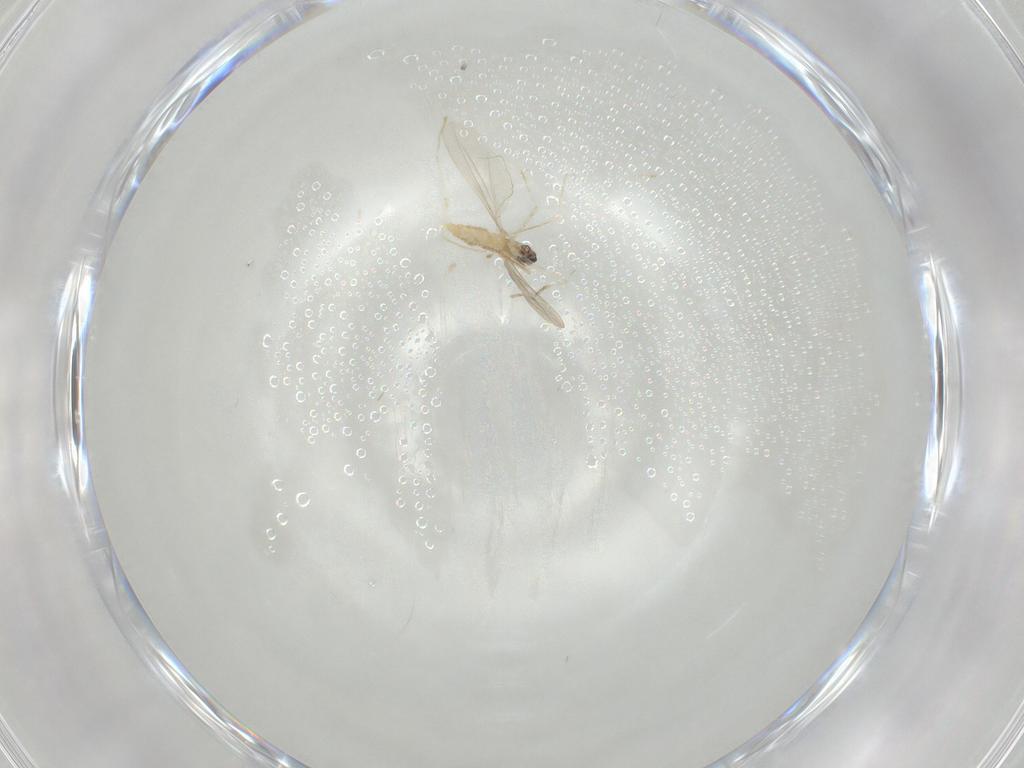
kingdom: Animalia
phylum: Arthropoda
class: Insecta
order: Diptera
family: Cecidomyiidae
